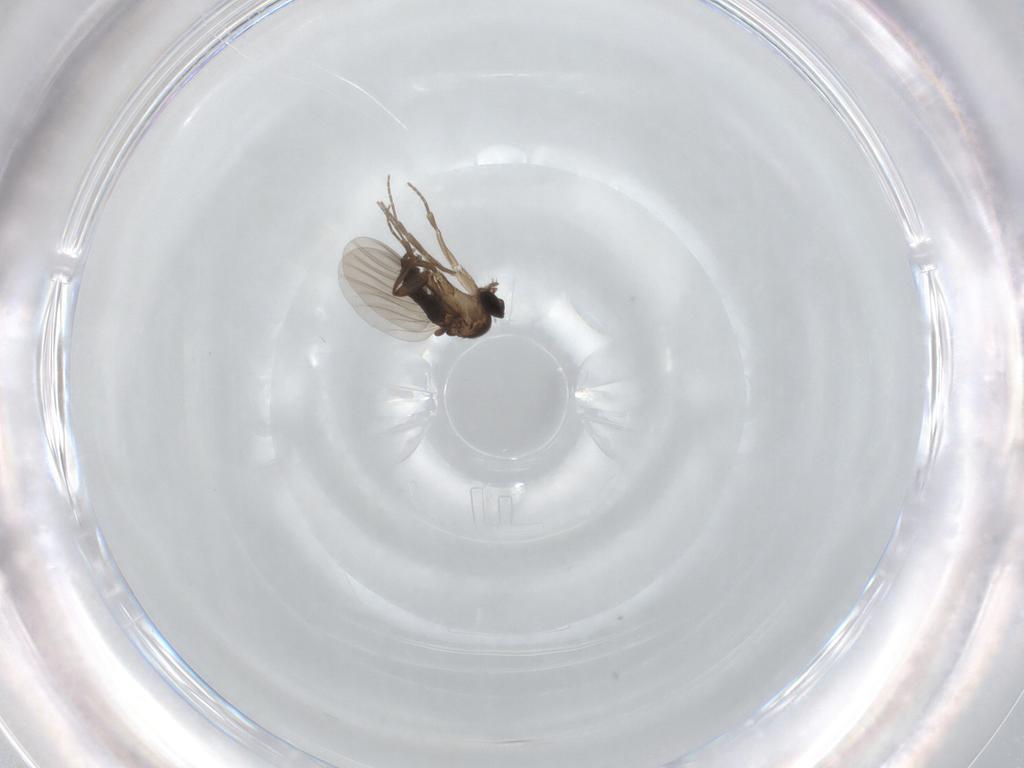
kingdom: Animalia
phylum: Arthropoda
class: Insecta
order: Diptera
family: Phoridae
